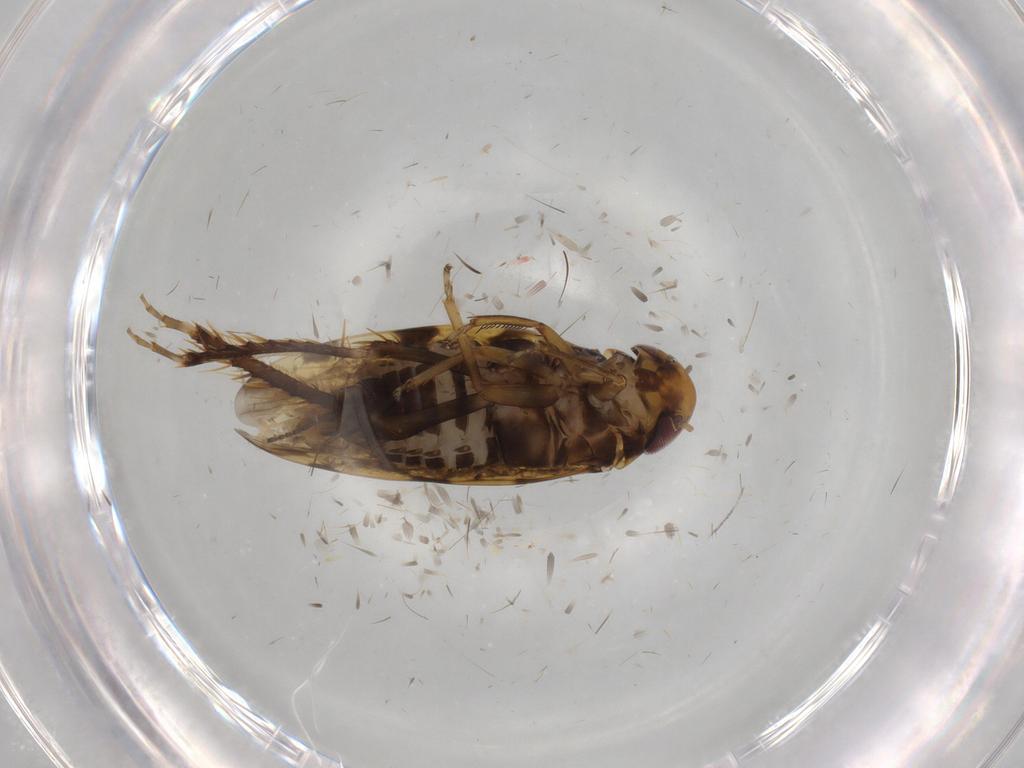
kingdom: Animalia
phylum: Arthropoda
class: Insecta
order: Hemiptera
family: Cicadellidae
